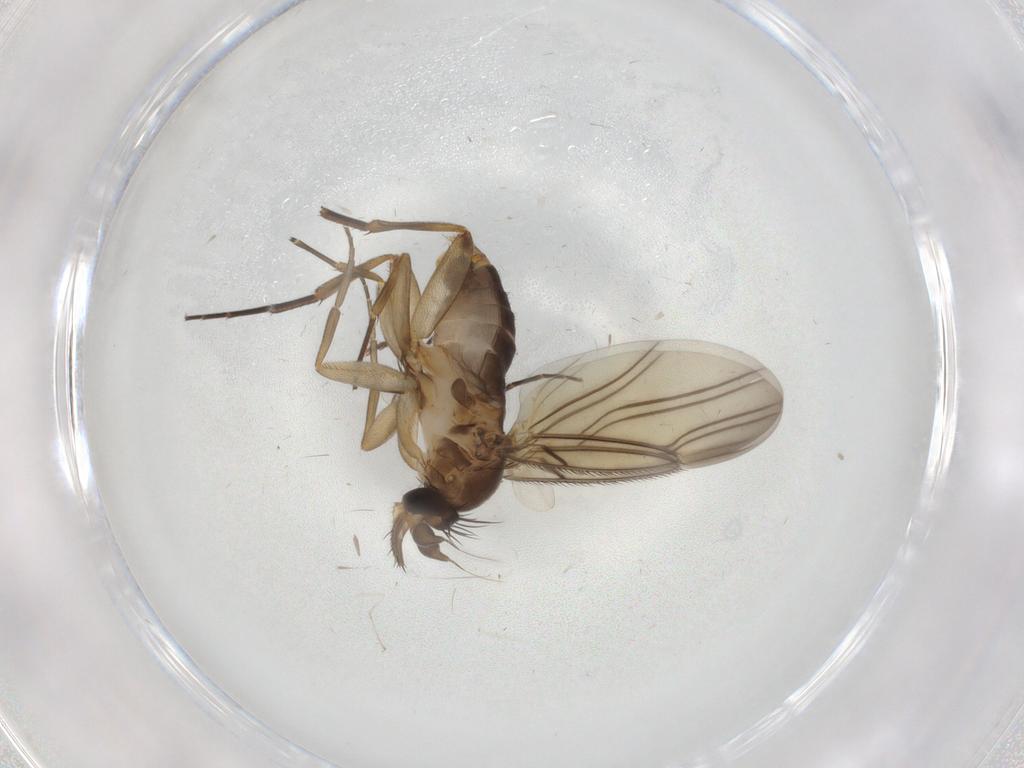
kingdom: Animalia
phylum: Arthropoda
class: Insecta
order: Diptera
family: Phoridae
